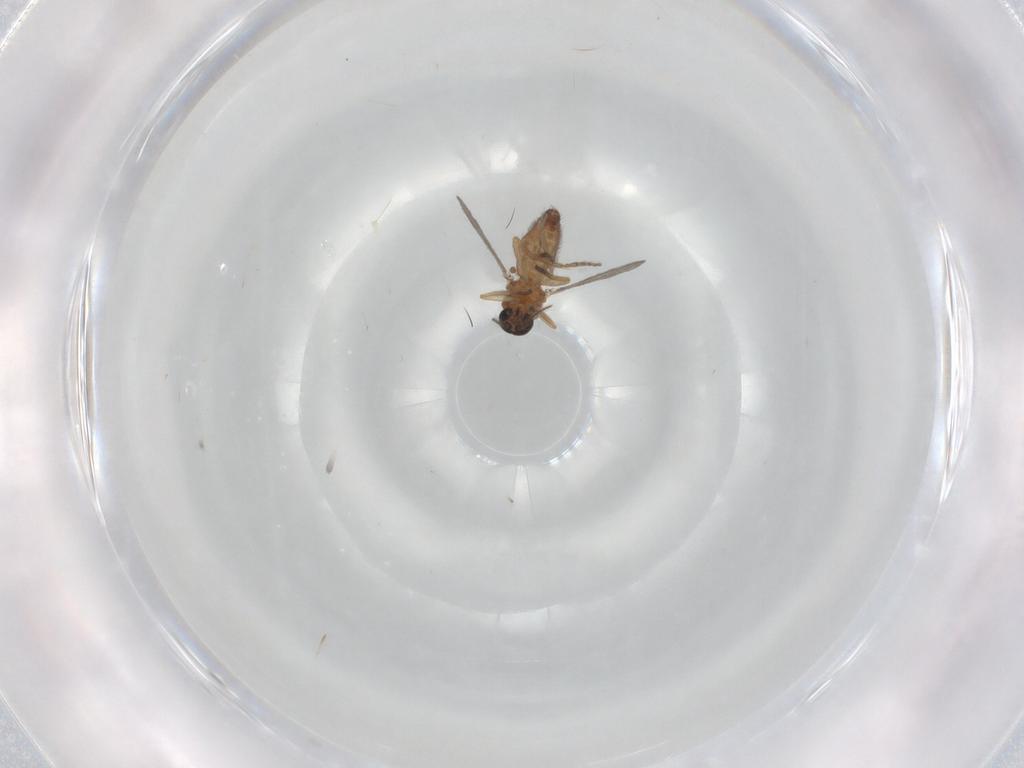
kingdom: Animalia
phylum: Arthropoda
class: Insecta
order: Diptera
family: Ceratopogonidae
